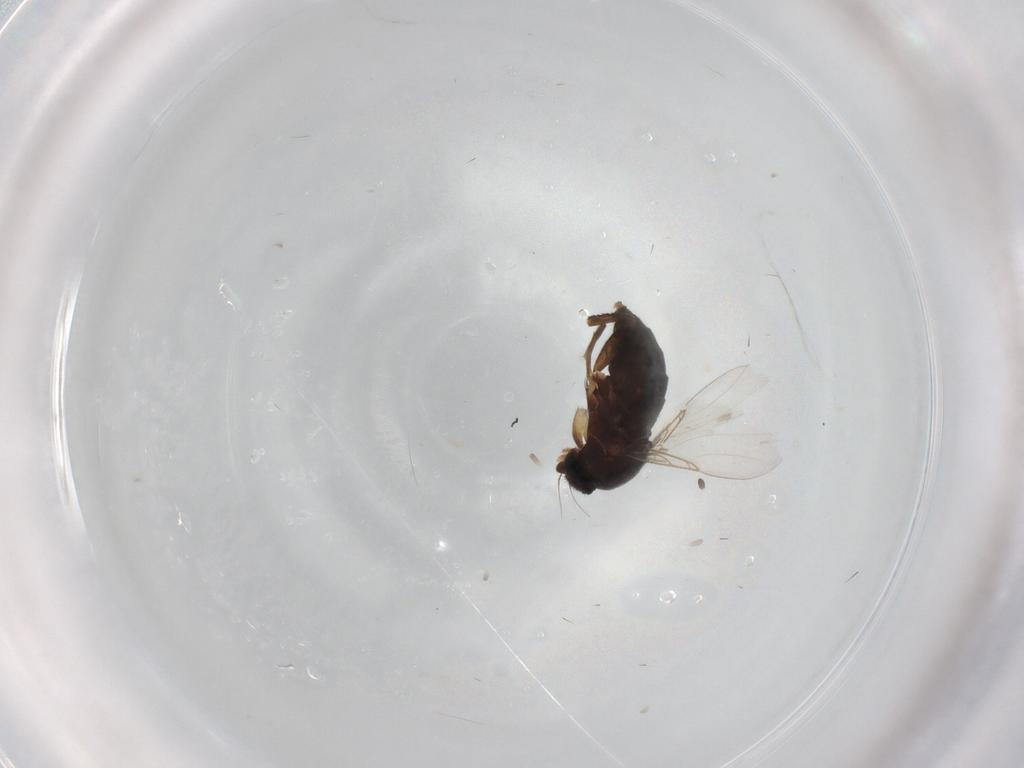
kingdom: Animalia
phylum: Arthropoda
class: Insecta
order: Diptera
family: Phoridae
